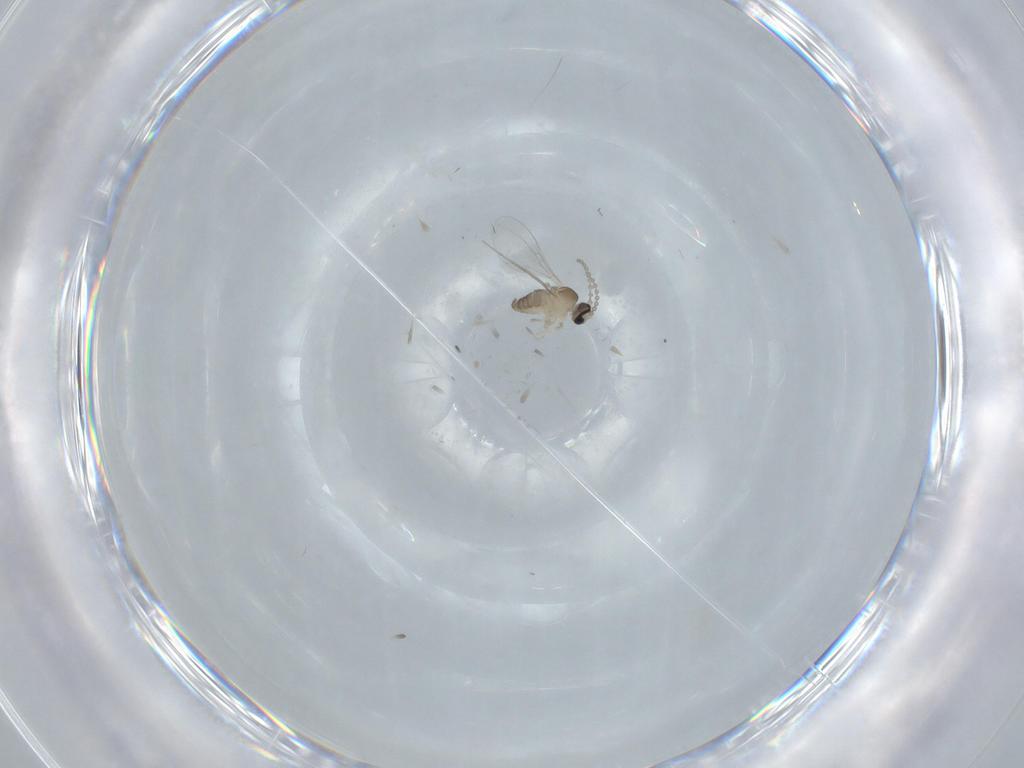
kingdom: Animalia
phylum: Arthropoda
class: Insecta
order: Diptera
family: Cecidomyiidae
